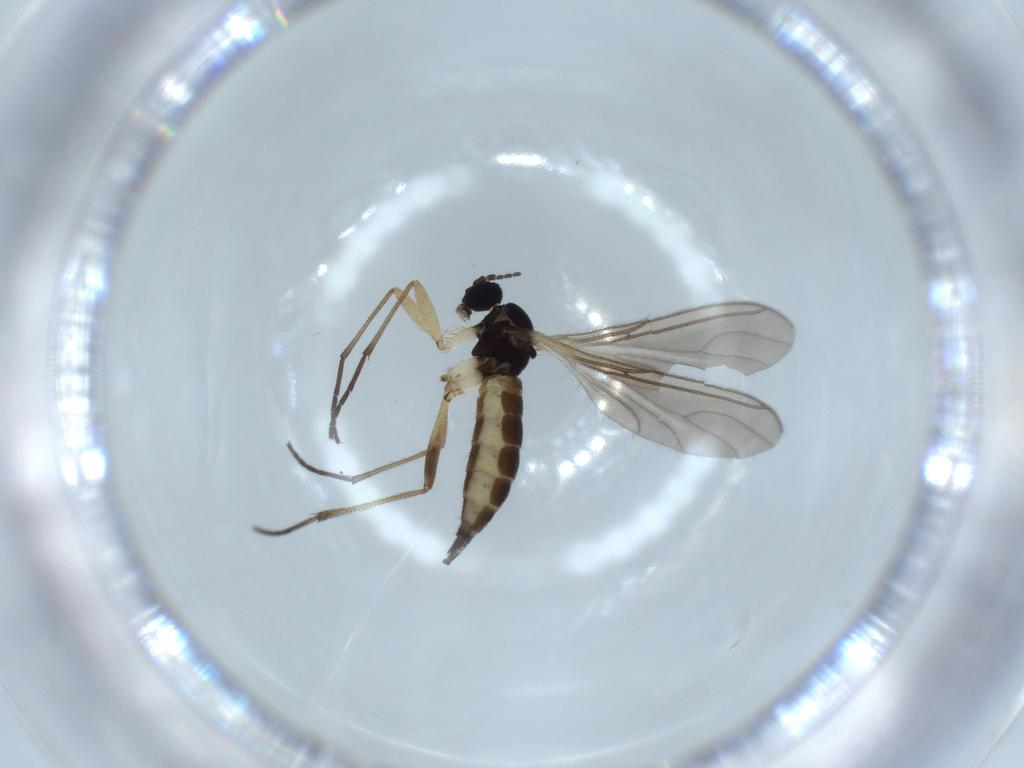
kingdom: Animalia
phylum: Arthropoda
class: Insecta
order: Diptera
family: Sciaridae
